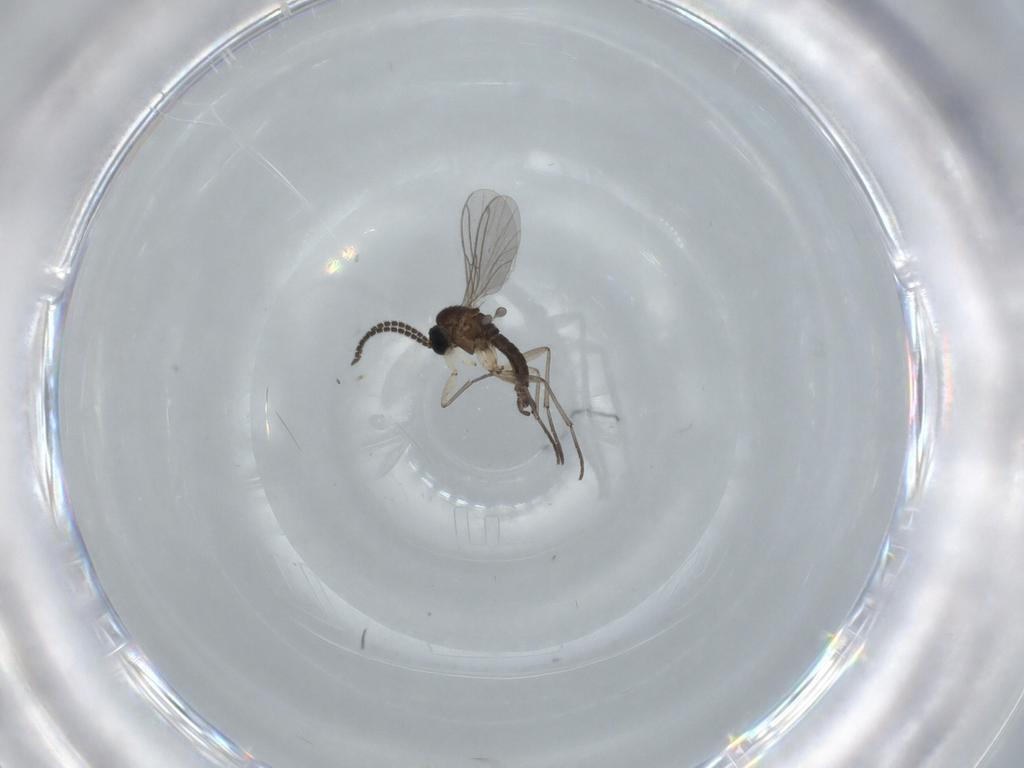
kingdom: Animalia
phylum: Arthropoda
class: Insecta
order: Diptera
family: Sciaridae
